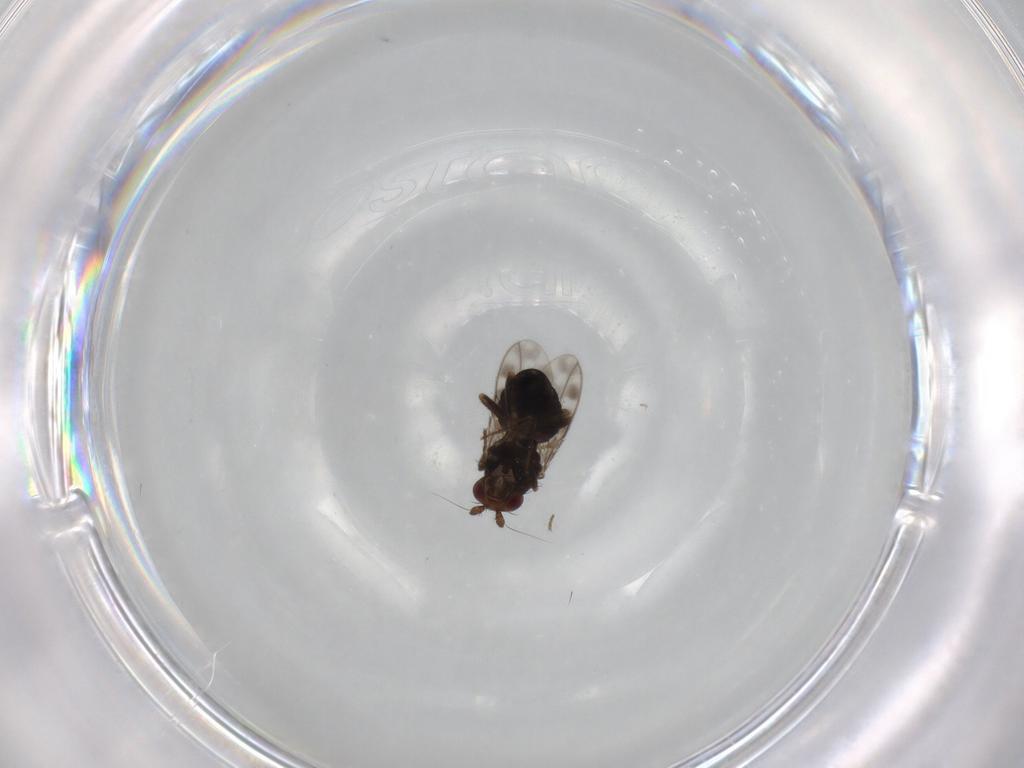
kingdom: Animalia
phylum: Arthropoda
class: Insecta
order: Diptera
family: Sphaeroceridae
